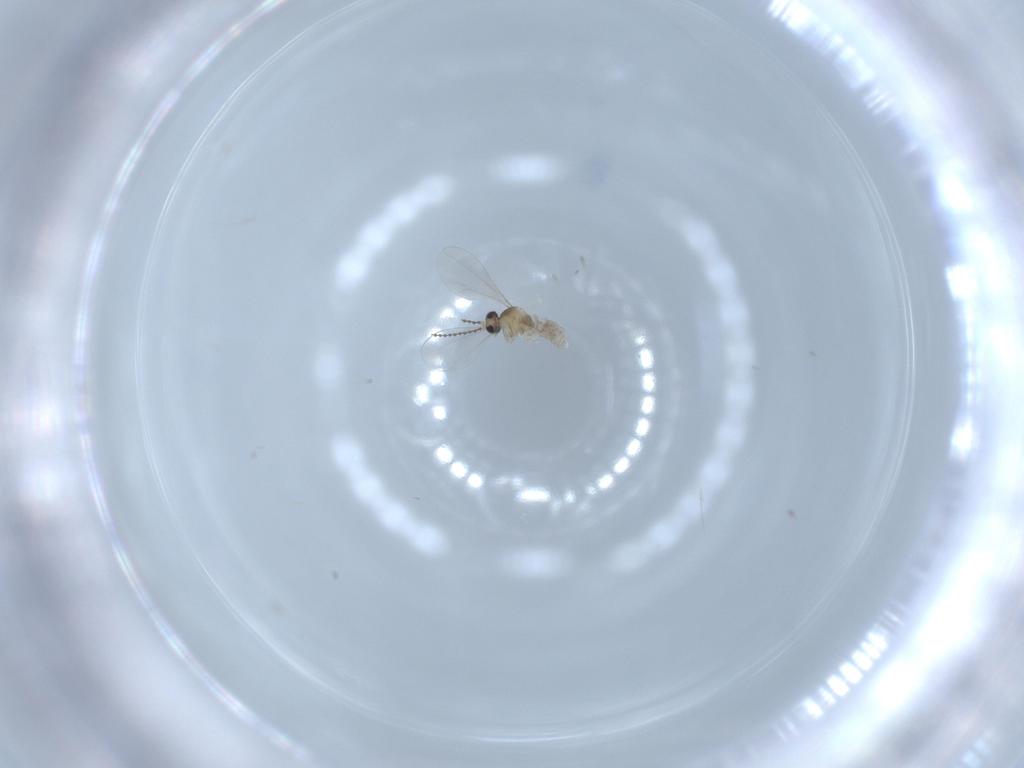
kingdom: Animalia
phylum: Arthropoda
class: Insecta
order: Diptera
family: Cecidomyiidae
